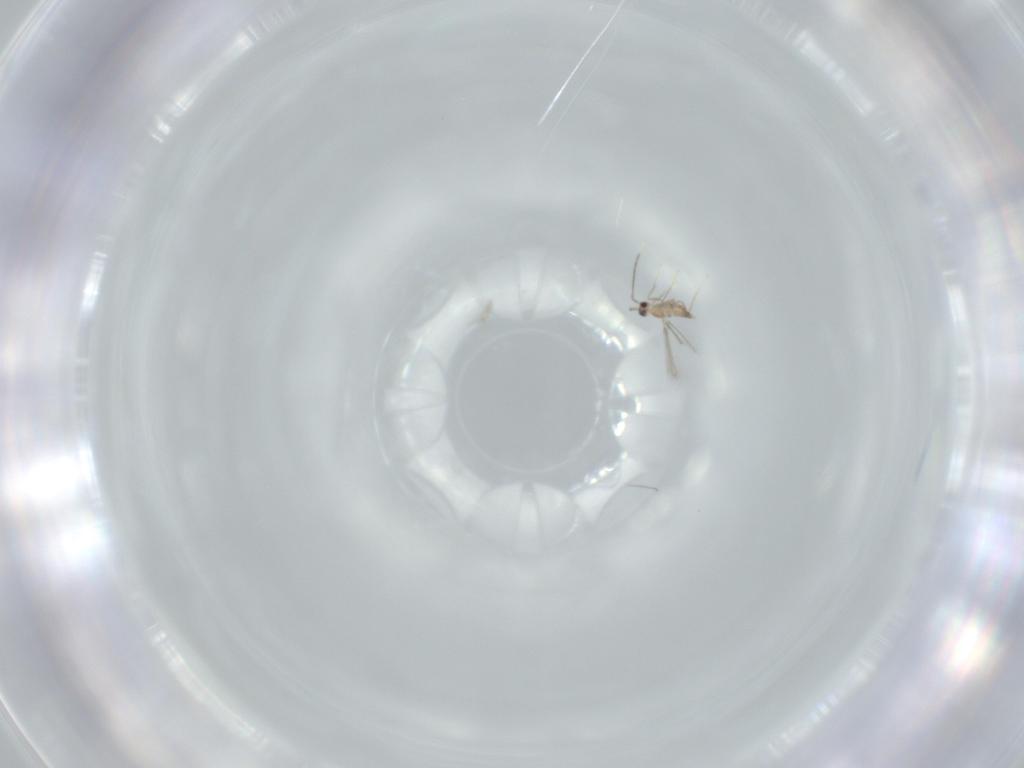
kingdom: Animalia
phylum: Arthropoda
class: Insecta
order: Hymenoptera
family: Mymaridae
